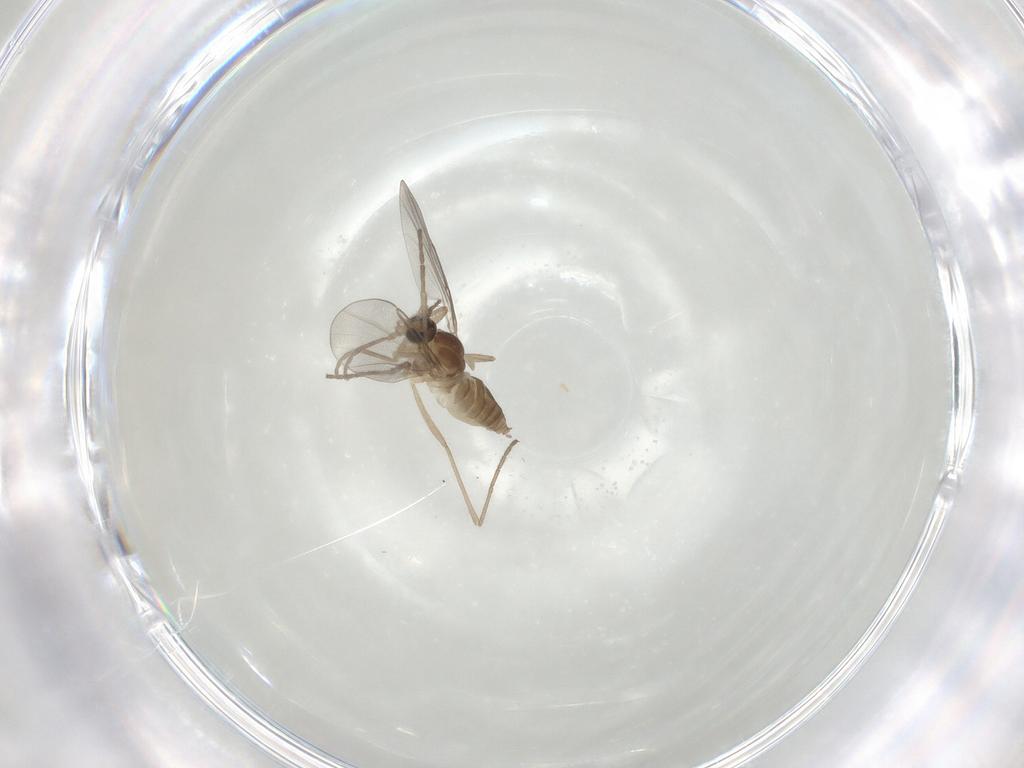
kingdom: Animalia
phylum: Arthropoda
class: Insecta
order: Diptera
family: Cecidomyiidae
